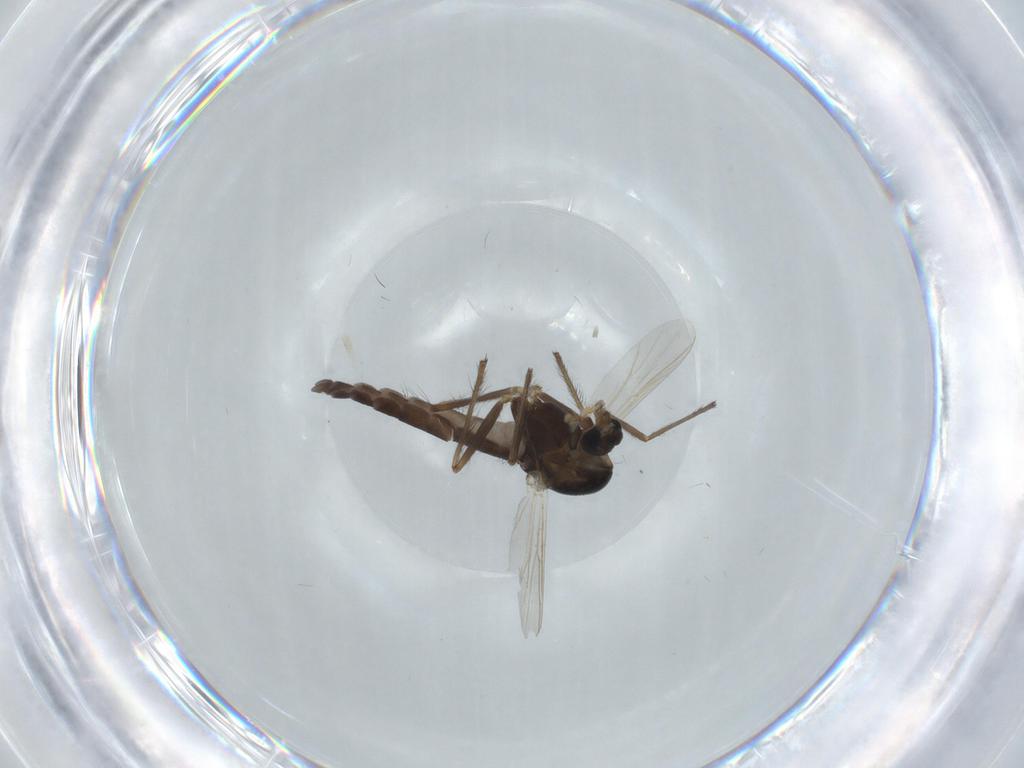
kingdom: Animalia
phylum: Arthropoda
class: Insecta
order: Diptera
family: Chironomidae
